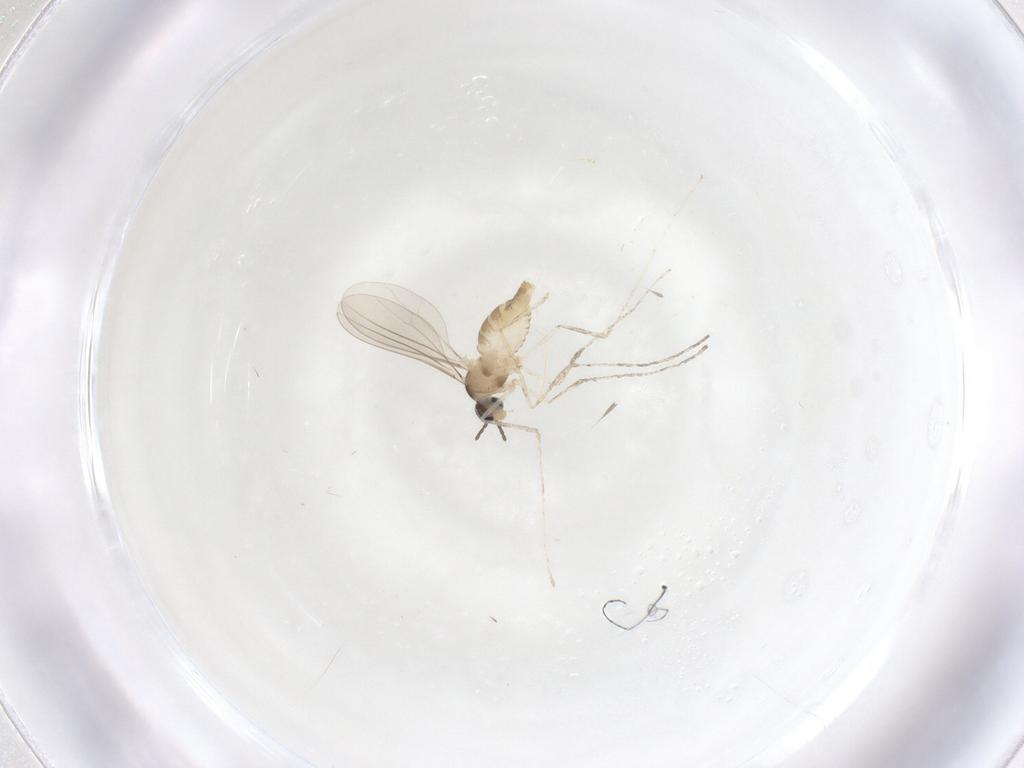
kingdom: Animalia
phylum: Arthropoda
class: Insecta
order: Diptera
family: Cecidomyiidae
